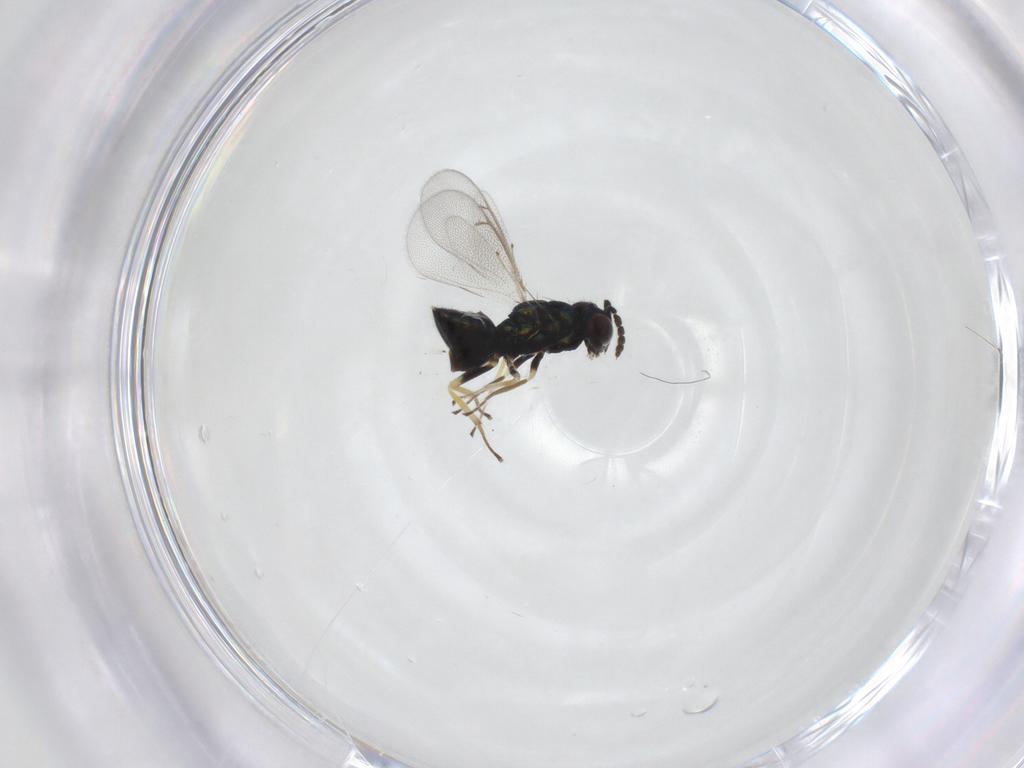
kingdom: Animalia
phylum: Arthropoda
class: Insecta
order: Hymenoptera
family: Eulophidae
